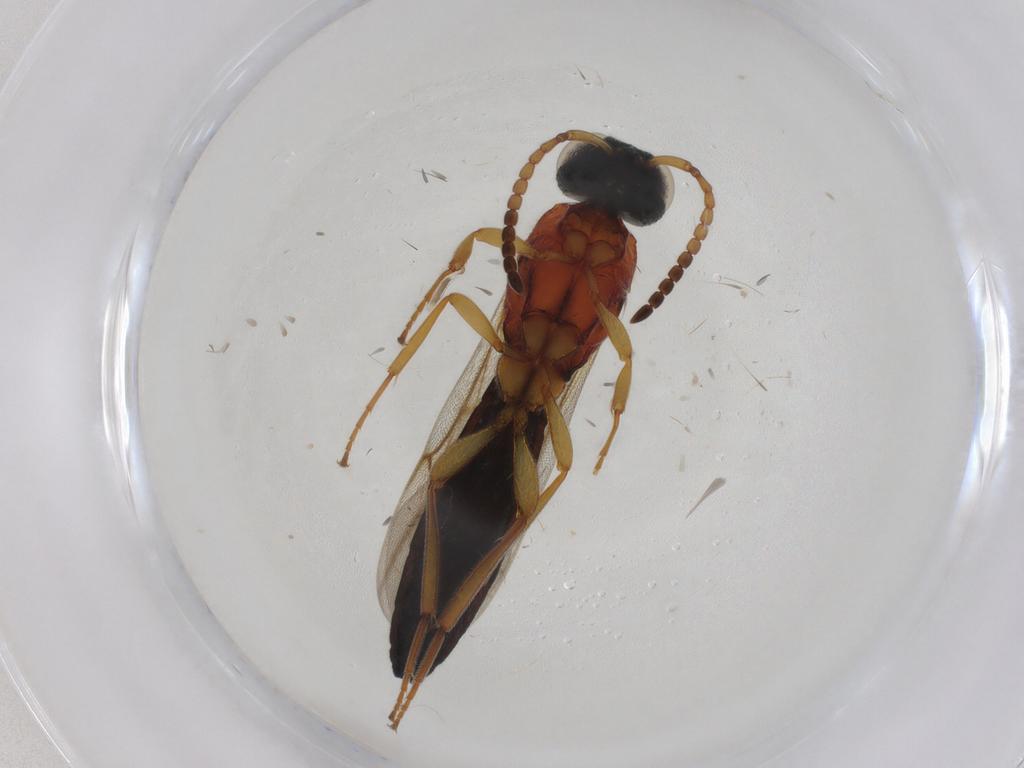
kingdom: Animalia
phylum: Arthropoda
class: Insecta
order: Hymenoptera
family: Scelionidae
